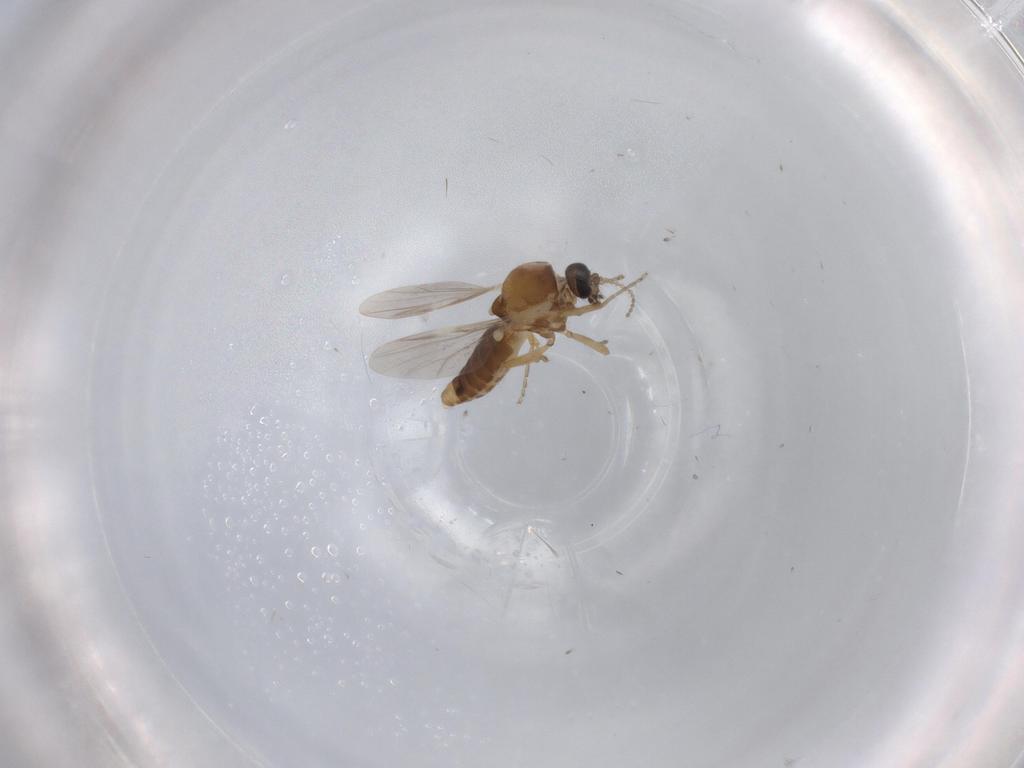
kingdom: Animalia
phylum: Arthropoda
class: Insecta
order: Diptera
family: Ceratopogonidae
